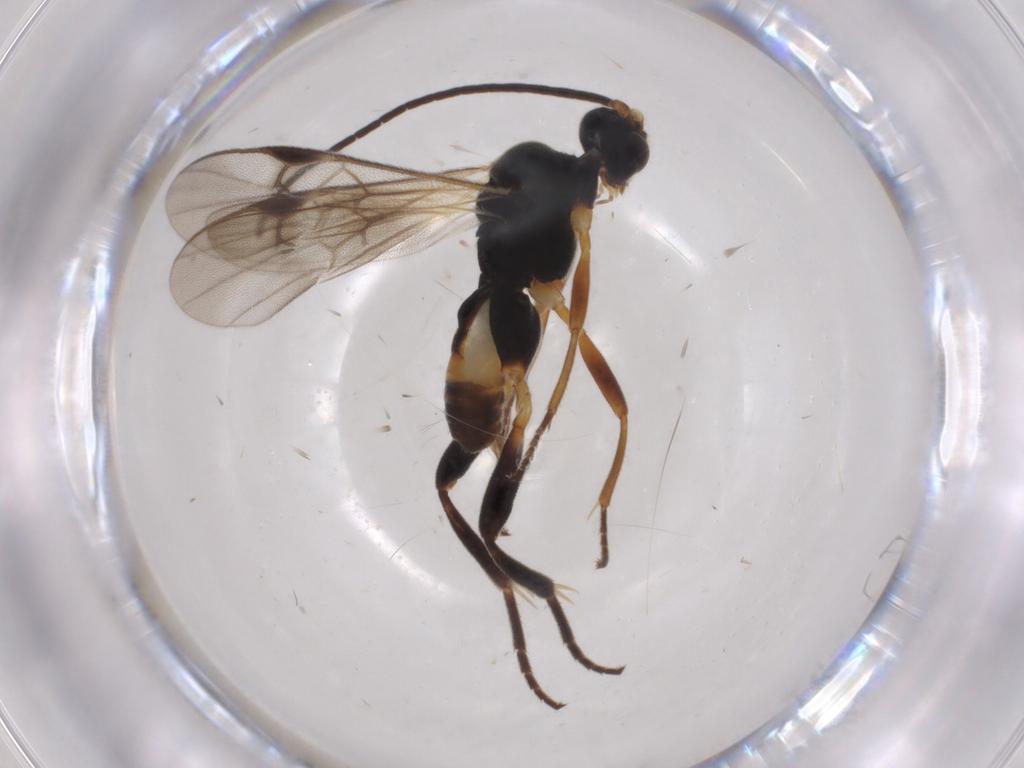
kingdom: Animalia
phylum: Arthropoda
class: Insecta
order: Hymenoptera
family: Braconidae
